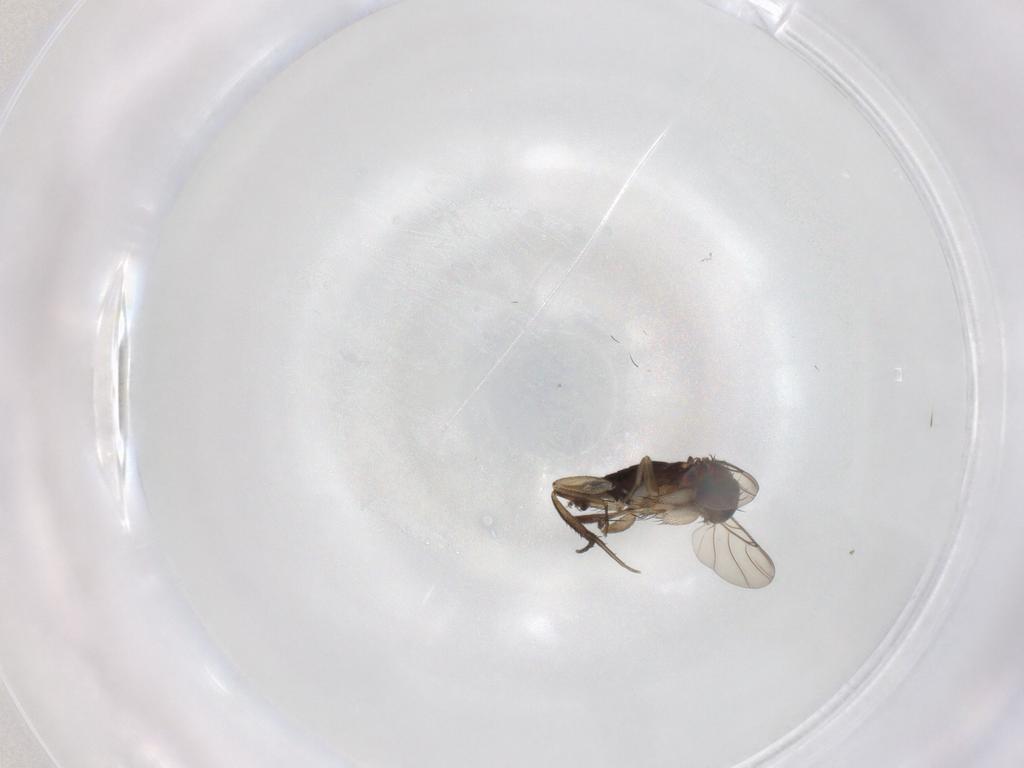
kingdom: Animalia
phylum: Arthropoda
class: Insecta
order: Diptera
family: Phoridae
